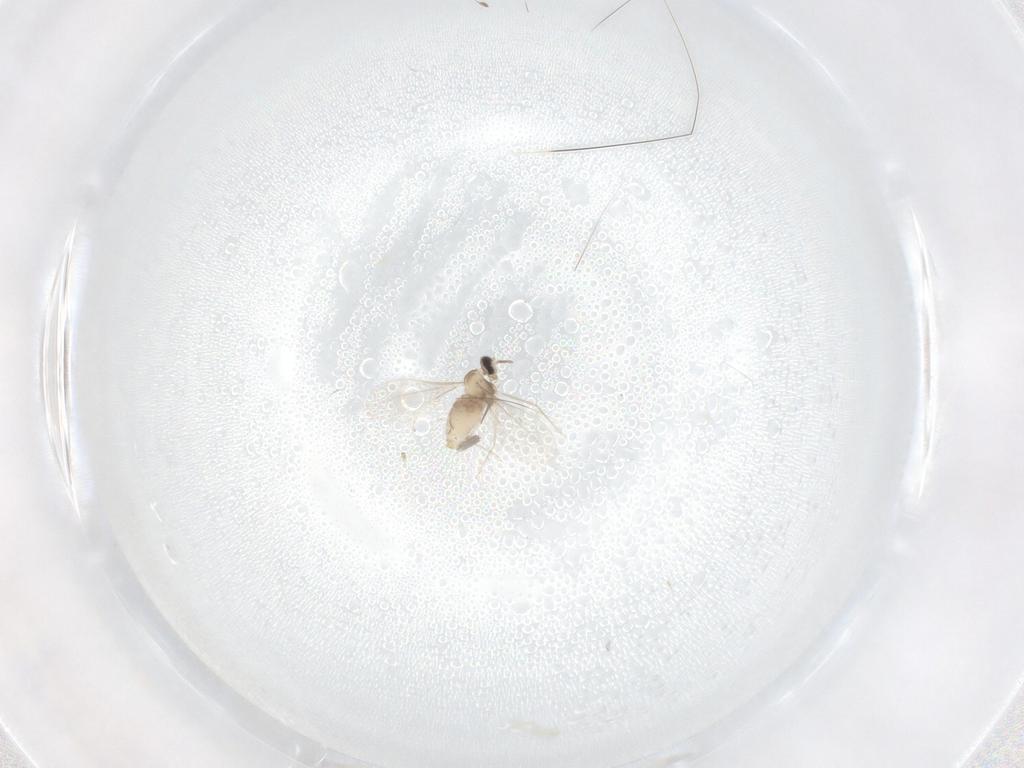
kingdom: Animalia
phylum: Arthropoda
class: Insecta
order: Diptera
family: Cecidomyiidae
